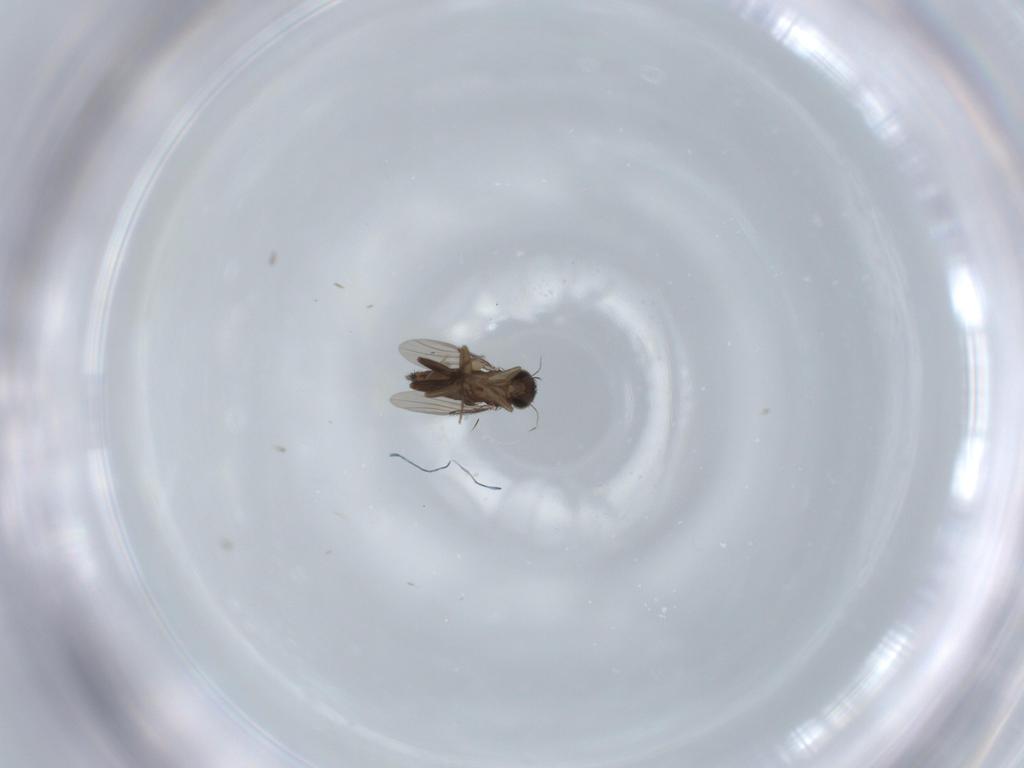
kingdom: Animalia
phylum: Arthropoda
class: Insecta
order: Diptera
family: Phoridae
